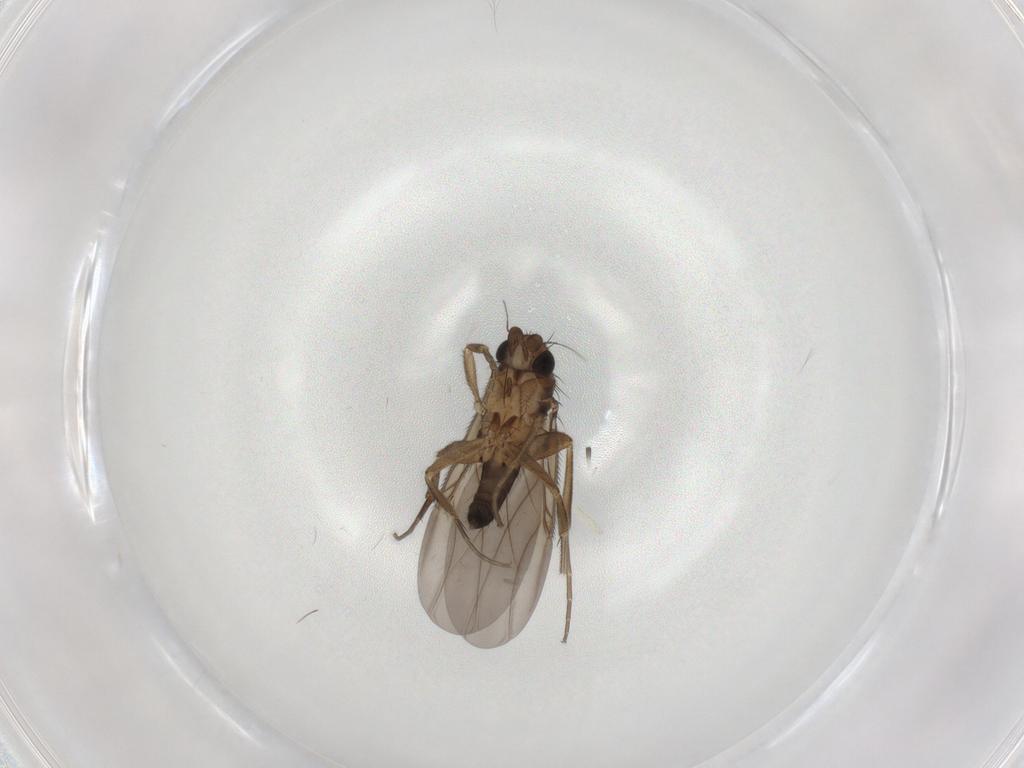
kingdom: Animalia
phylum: Arthropoda
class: Insecta
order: Diptera
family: Phoridae
